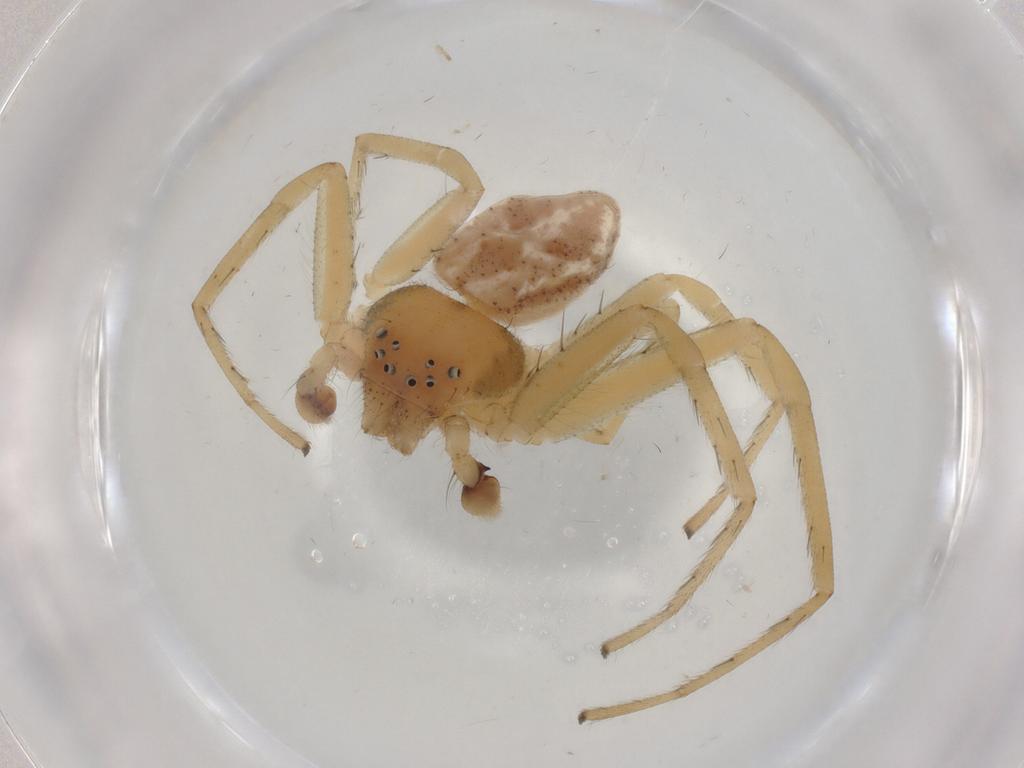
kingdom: Animalia
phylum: Arthropoda
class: Arachnida
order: Araneae
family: Philodromidae
